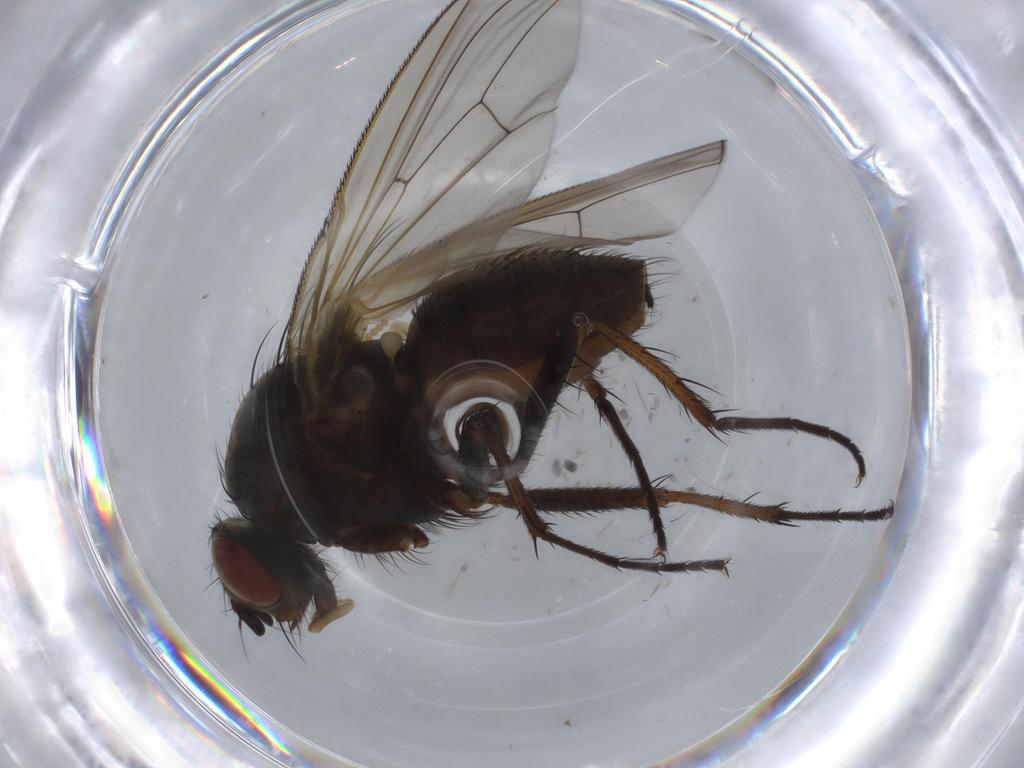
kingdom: Animalia
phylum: Arthropoda
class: Insecta
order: Diptera
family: Anthomyiidae
